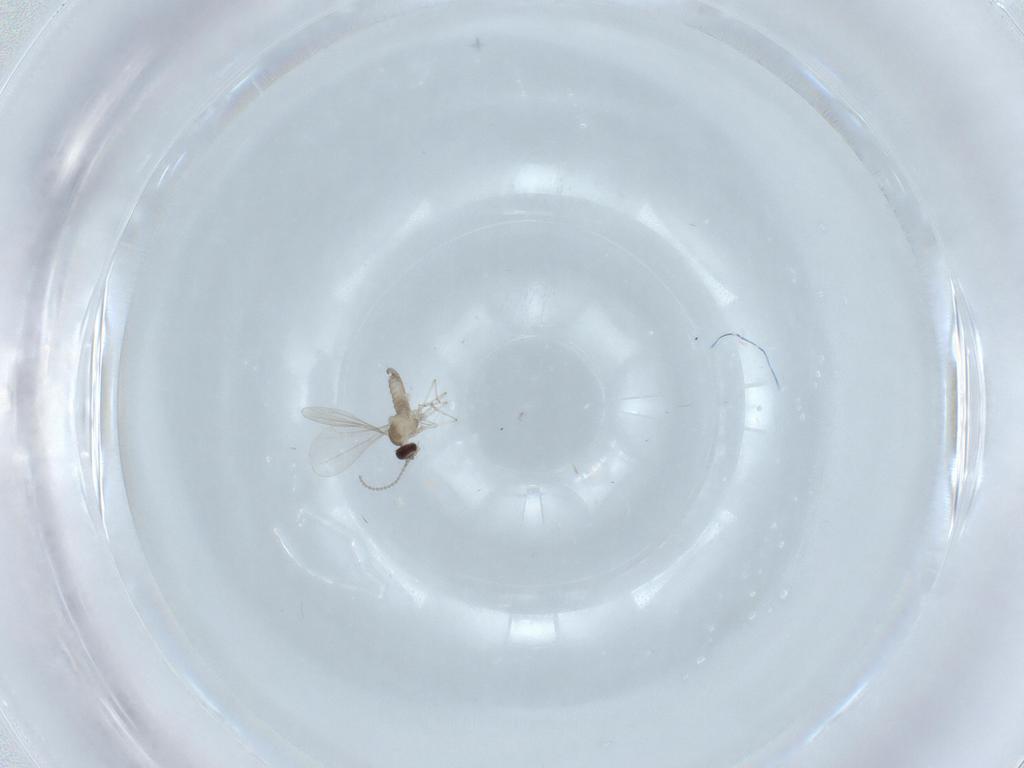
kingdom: Animalia
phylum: Arthropoda
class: Insecta
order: Diptera
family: Cecidomyiidae
